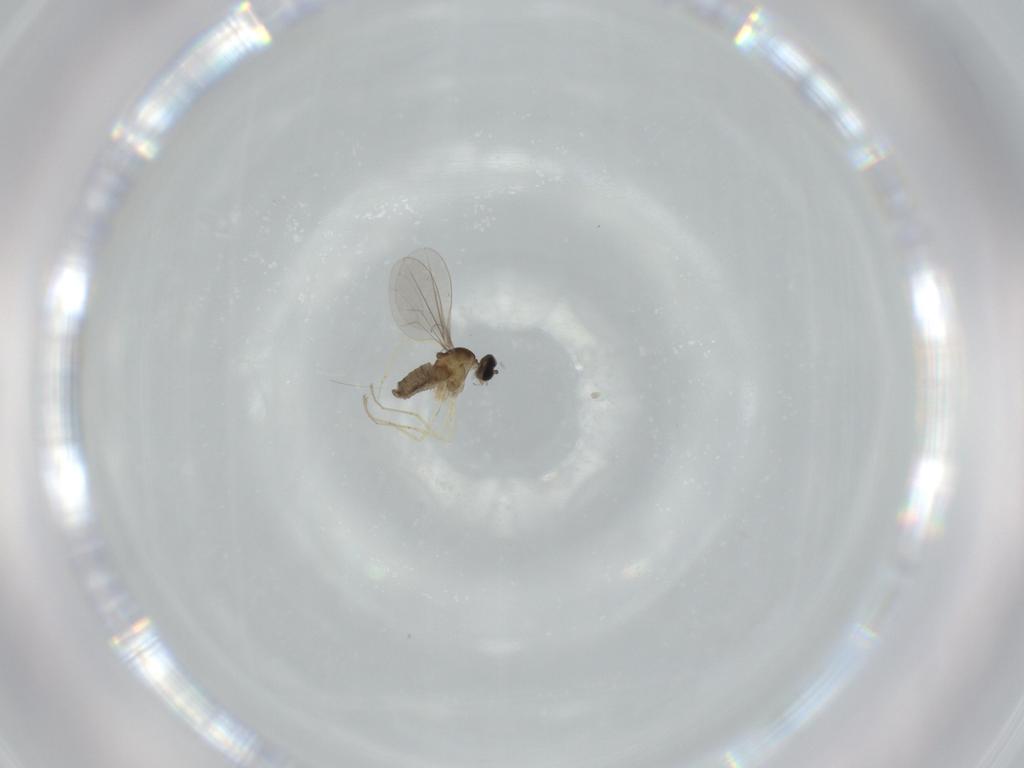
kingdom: Animalia
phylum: Arthropoda
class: Insecta
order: Diptera
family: Cecidomyiidae
